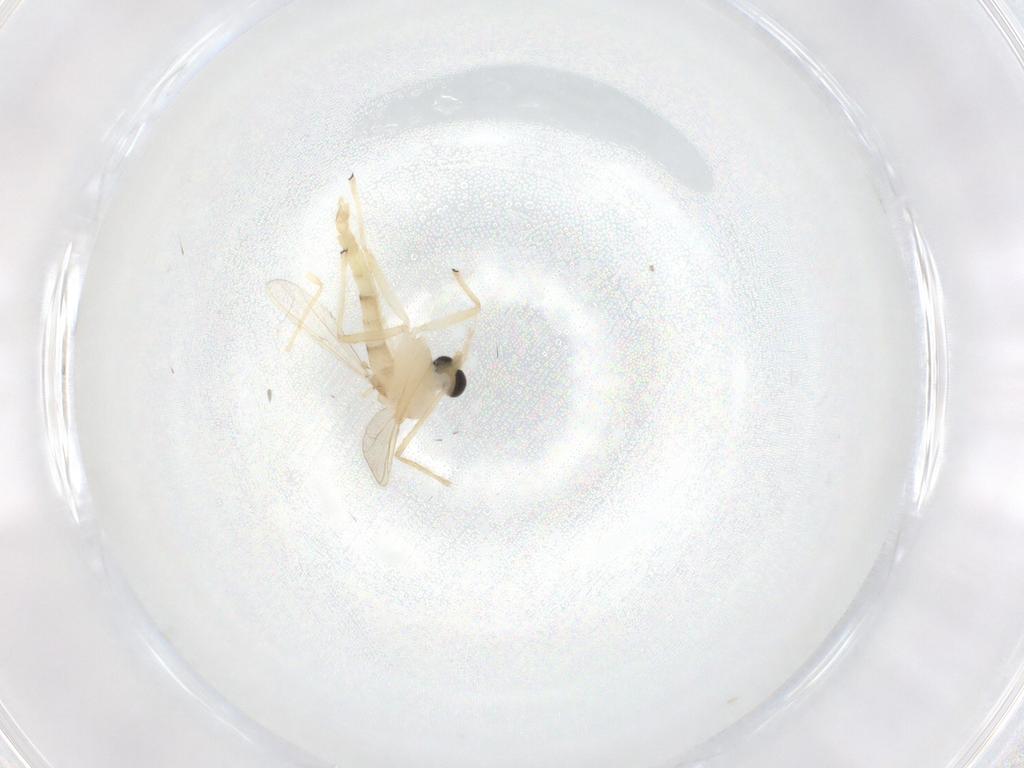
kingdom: Animalia
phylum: Arthropoda
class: Insecta
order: Diptera
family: Chironomidae
